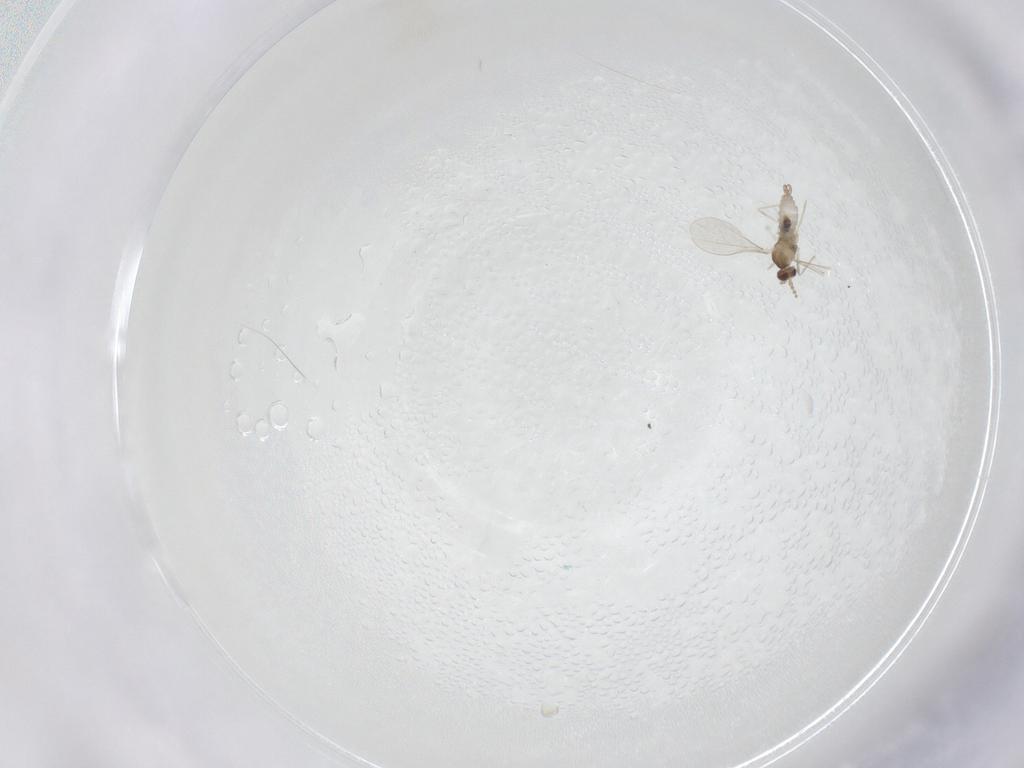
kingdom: Animalia
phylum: Arthropoda
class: Insecta
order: Diptera
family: Cecidomyiidae
